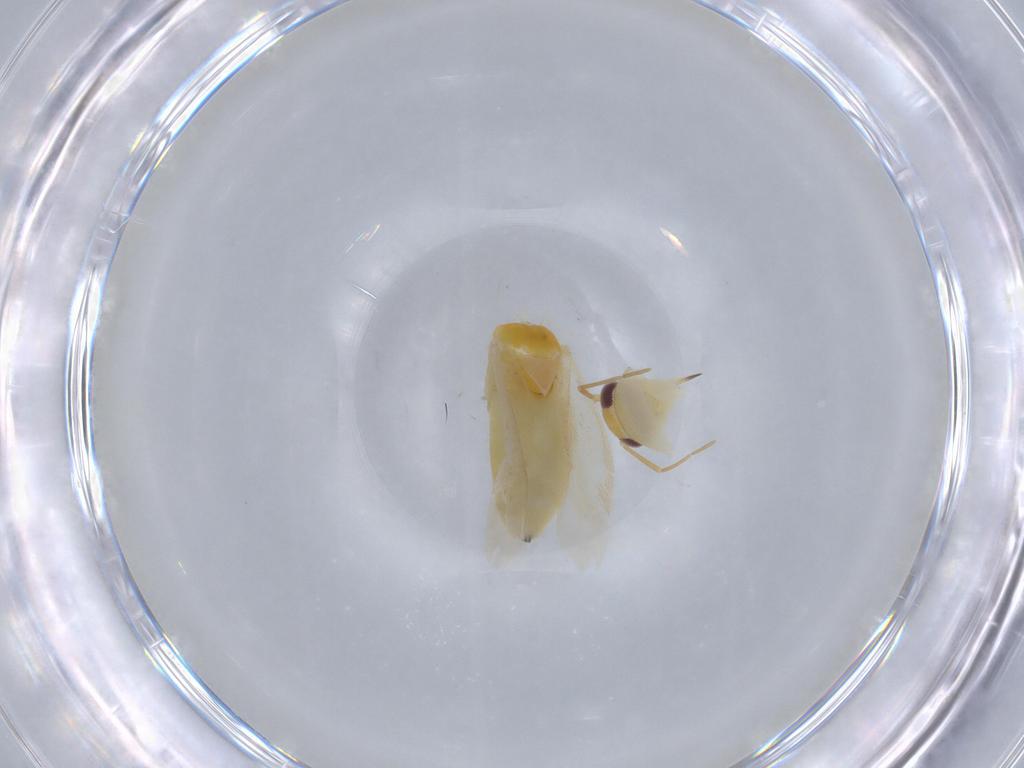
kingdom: Animalia
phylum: Arthropoda
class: Insecta
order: Hemiptera
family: Miridae
